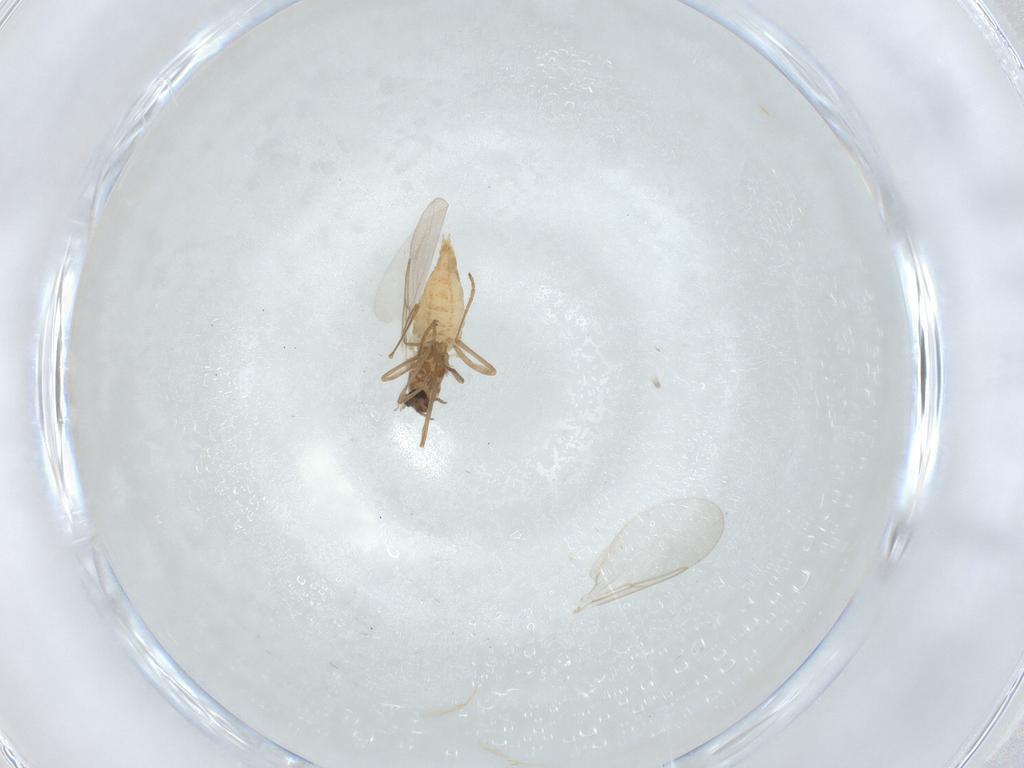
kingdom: Animalia
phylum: Arthropoda
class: Insecta
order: Diptera
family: Cecidomyiidae
